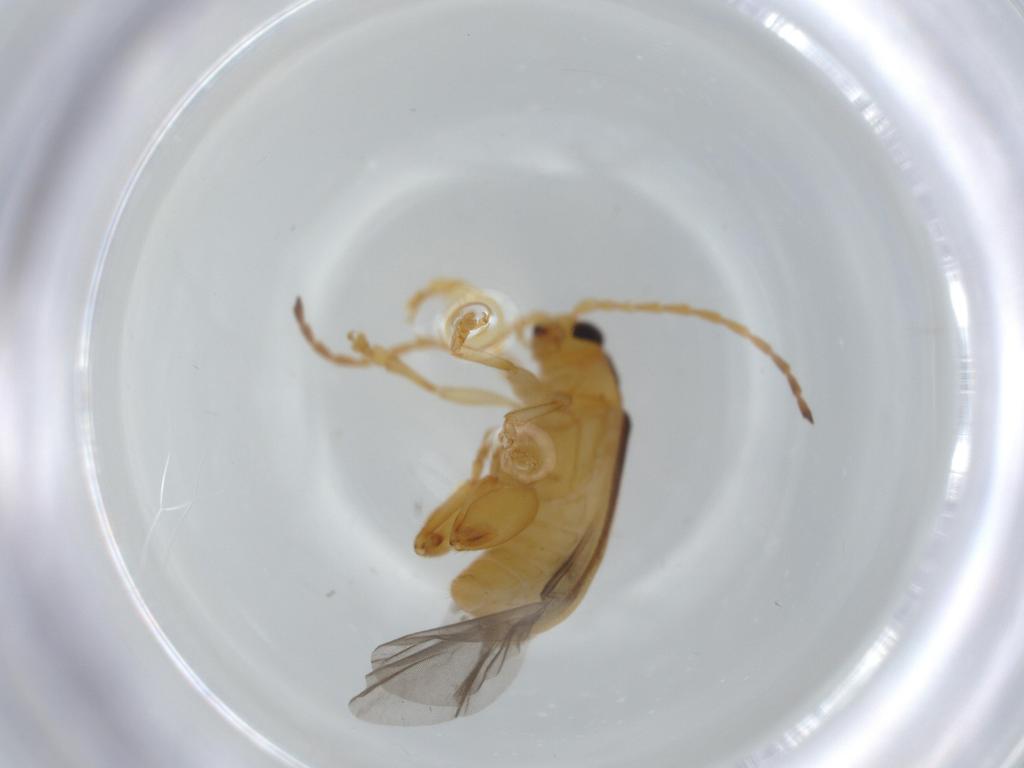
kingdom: Animalia
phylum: Arthropoda
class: Insecta
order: Coleoptera
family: Chrysomelidae
